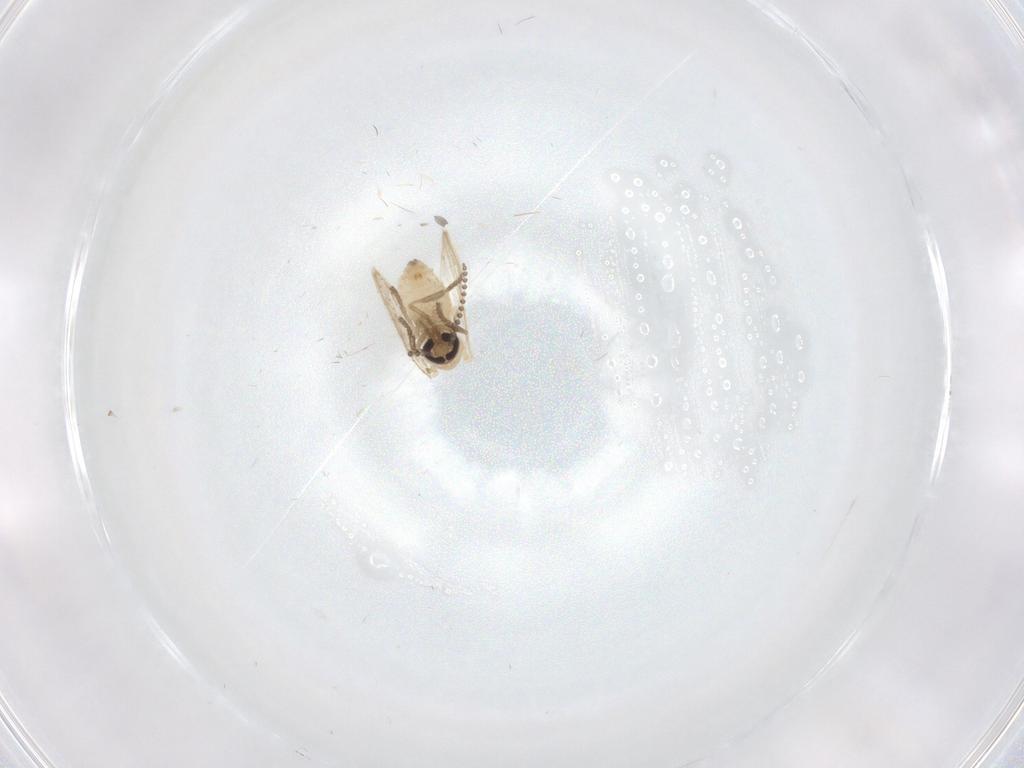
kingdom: Animalia
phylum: Arthropoda
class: Insecta
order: Diptera
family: Psychodidae
